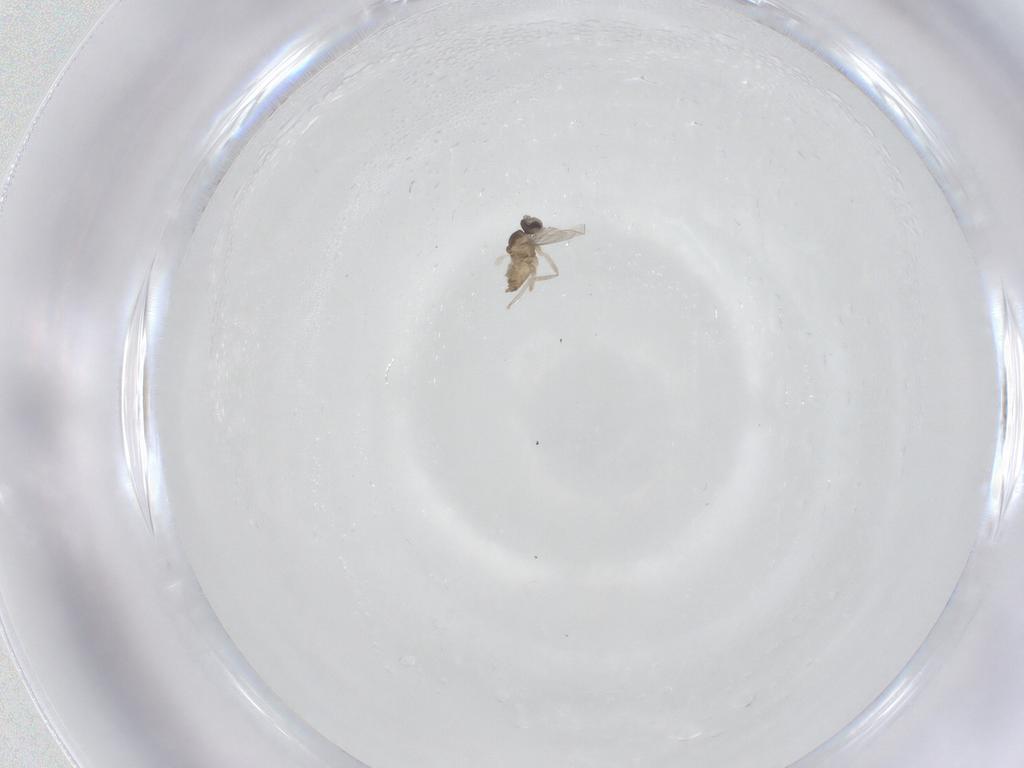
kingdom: Animalia
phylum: Arthropoda
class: Insecta
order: Diptera
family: Cecidomyiidae
